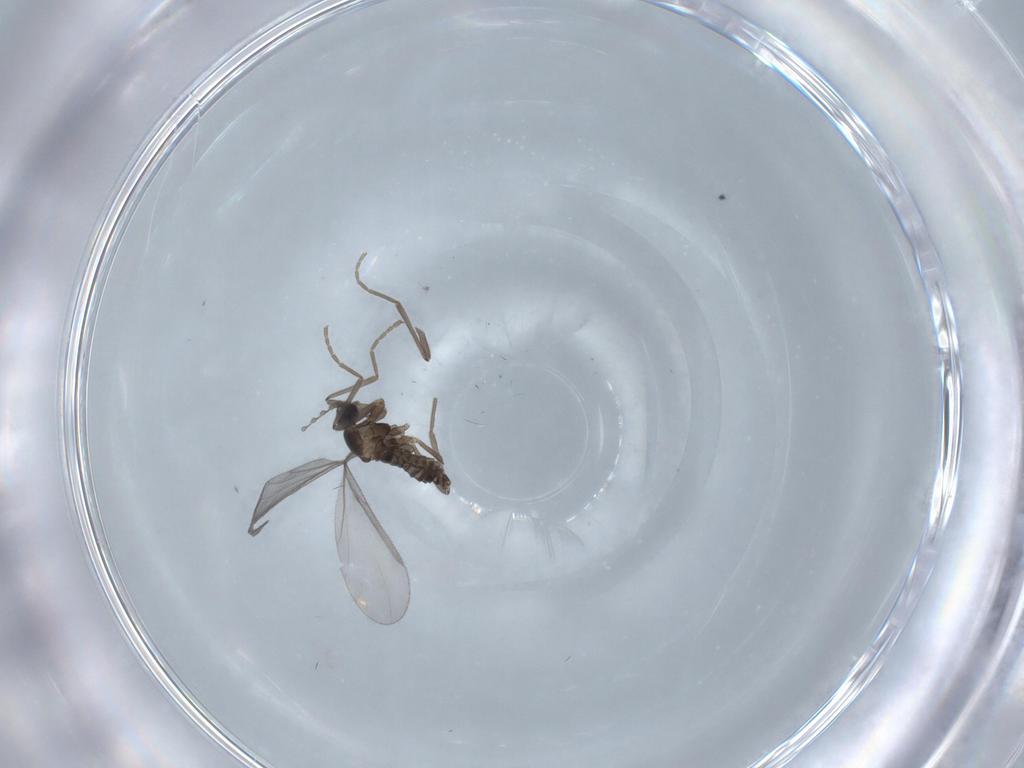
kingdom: Animalia
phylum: Arthropoda
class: Insecta
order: Diptera
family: Cecidomyiidae
